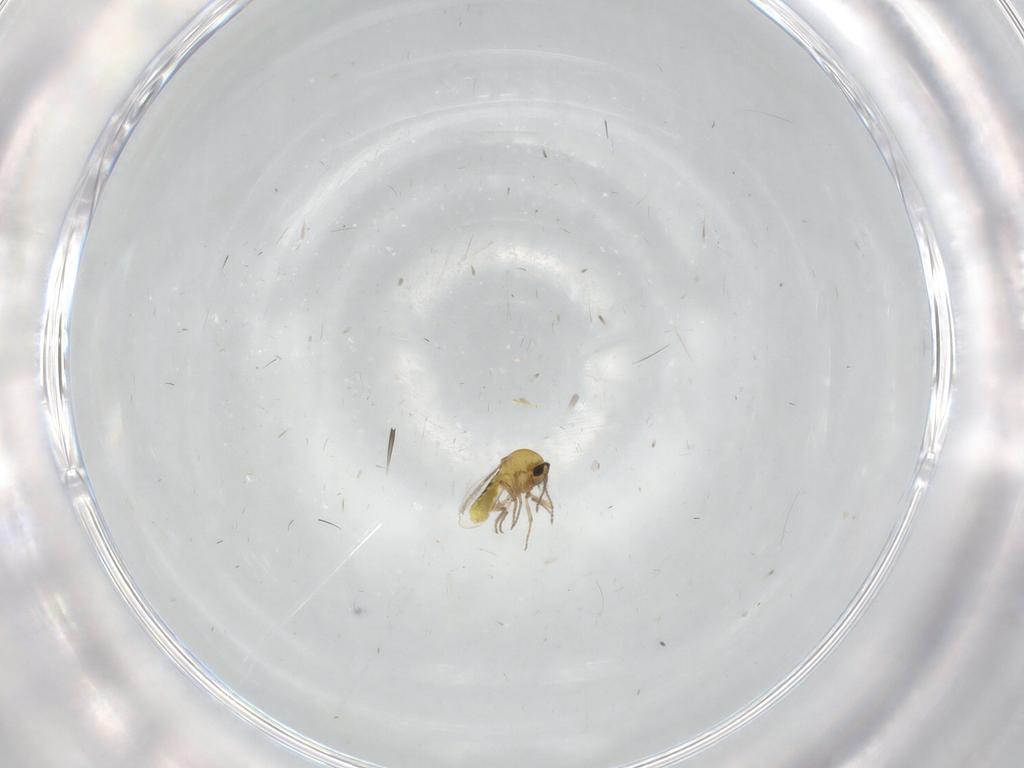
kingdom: Animalia
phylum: Arthropoda
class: Insecta
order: Diptera
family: Ceratopogonidae
